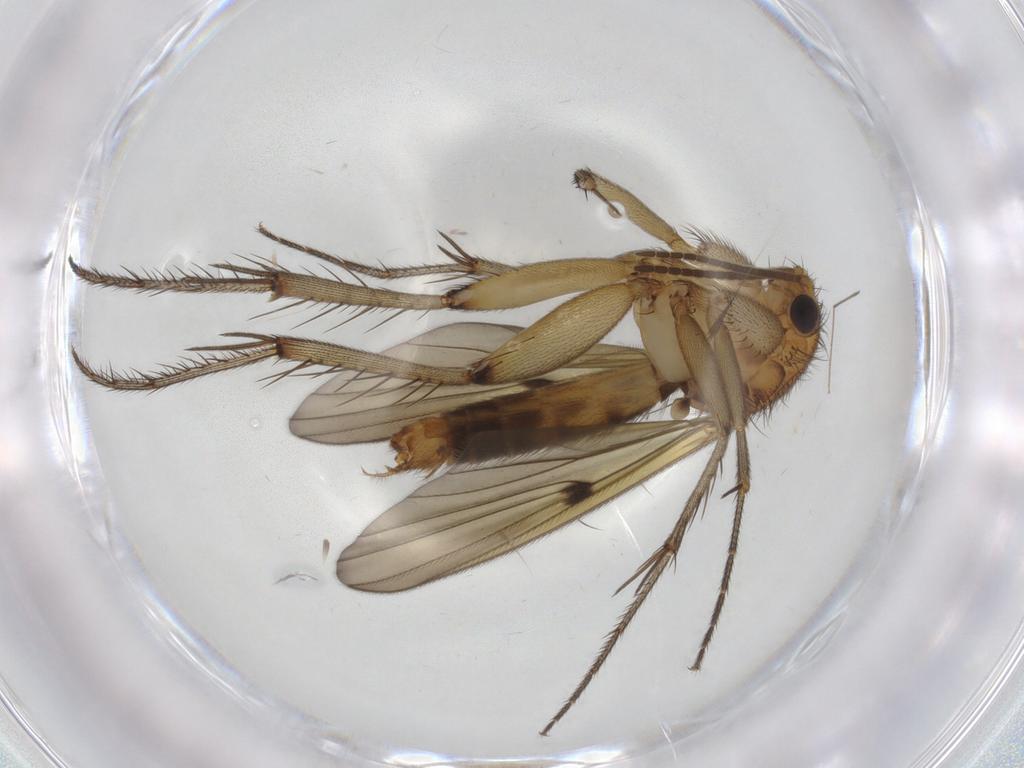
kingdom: Animalia
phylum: Arthropoda
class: Insecta
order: Diptera
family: Mycetophilidae
